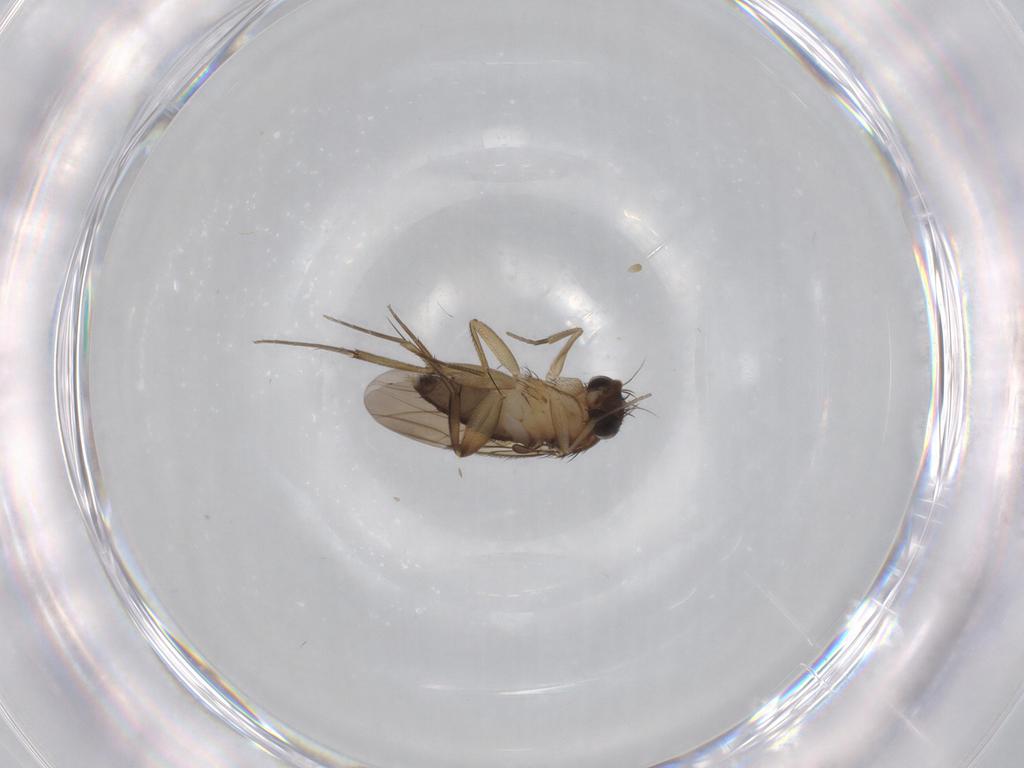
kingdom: Animalia
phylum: Arthropoda
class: Insecta
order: Diptera
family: Phoridae
